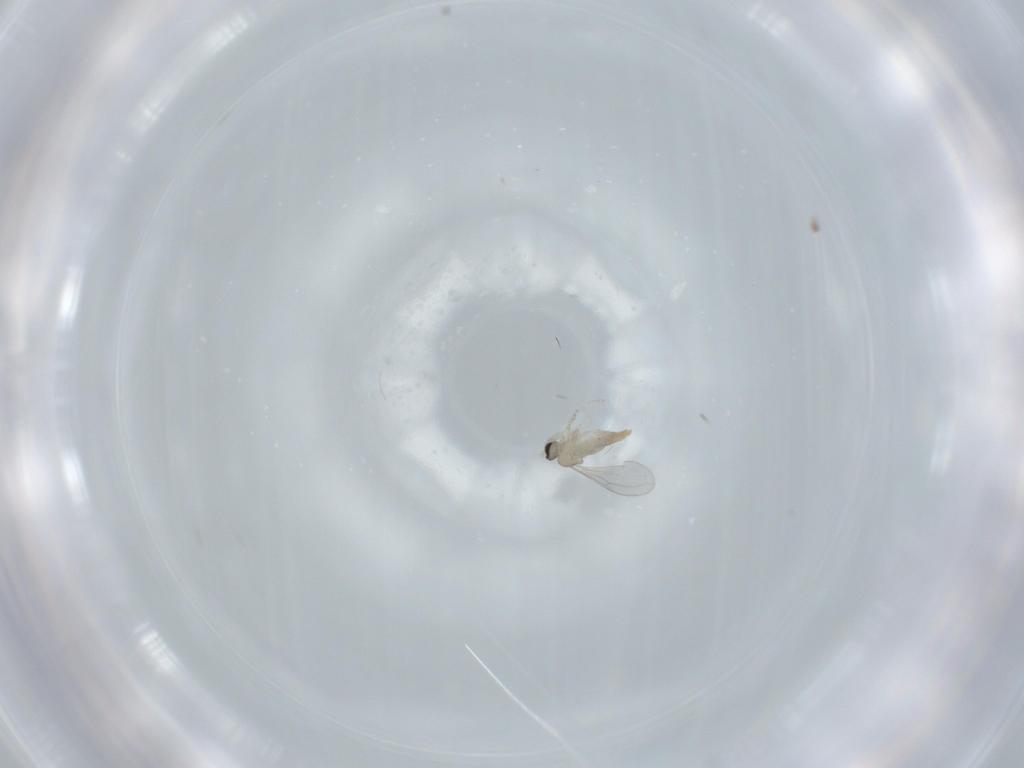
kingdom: Animalia
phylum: Arthropoda
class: Insecta
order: Diptera
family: Cecidomyiidae
